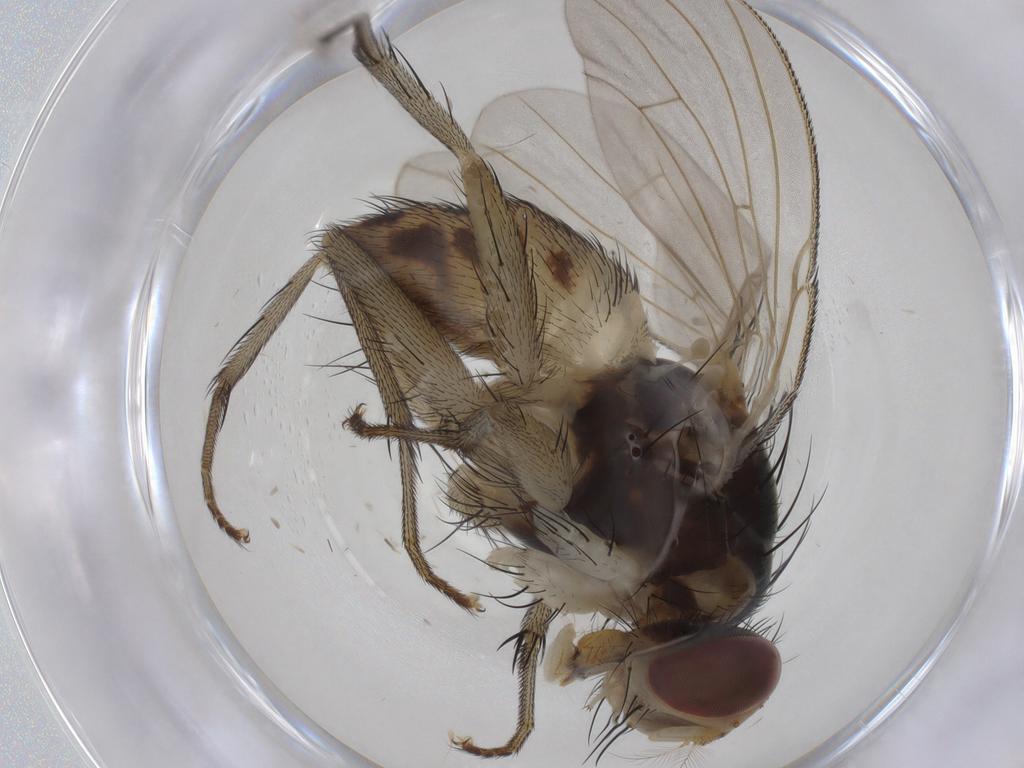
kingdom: Animalia
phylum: Arthropoda
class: Insecta
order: Diptera
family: Muscidae
